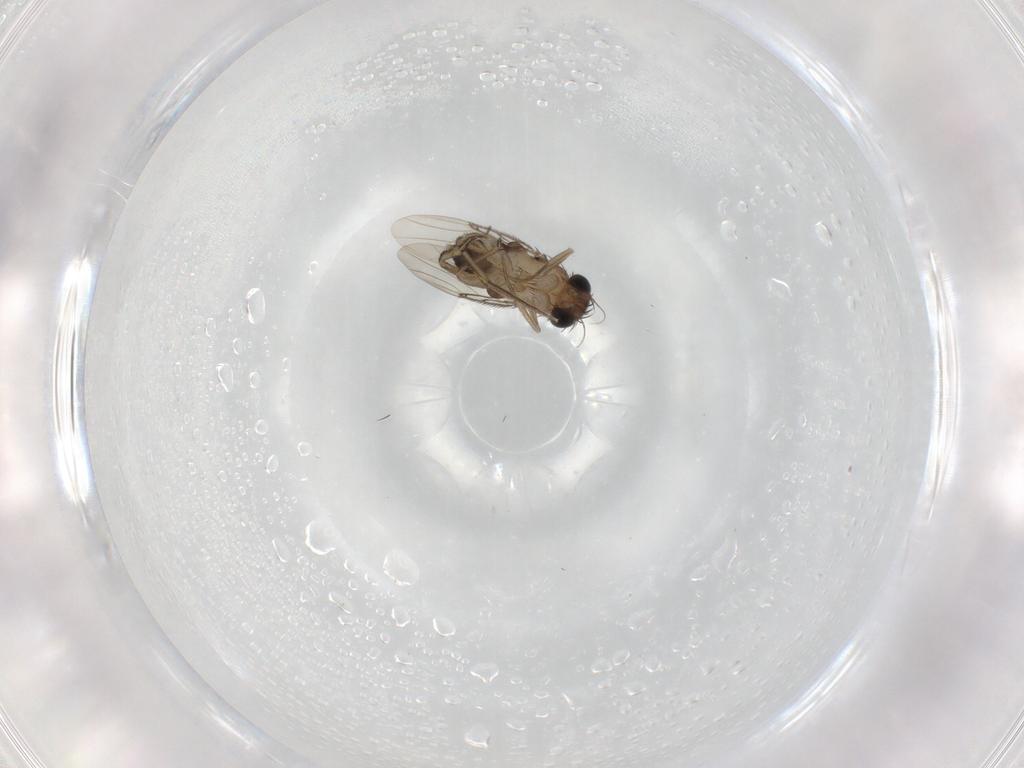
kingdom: Animalia
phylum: Arthropoda
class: Insecta
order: Diptera
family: Phoridae
